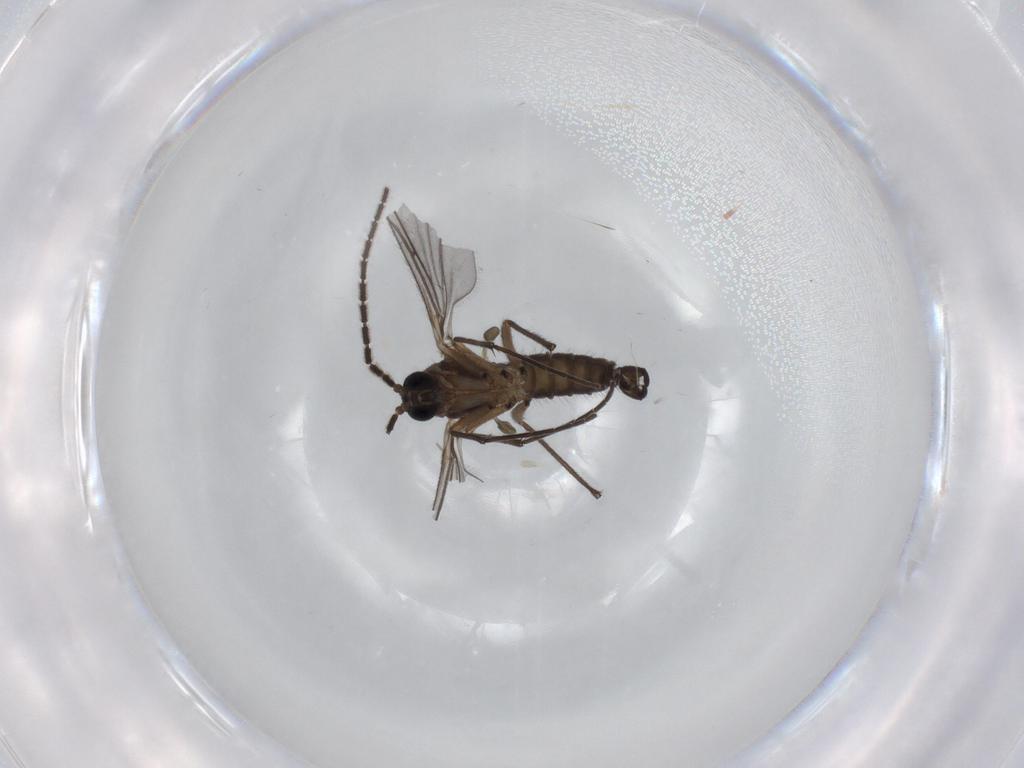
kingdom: Animalia
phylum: Arthropoda
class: Insecta
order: Diptera
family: Sciaridae
